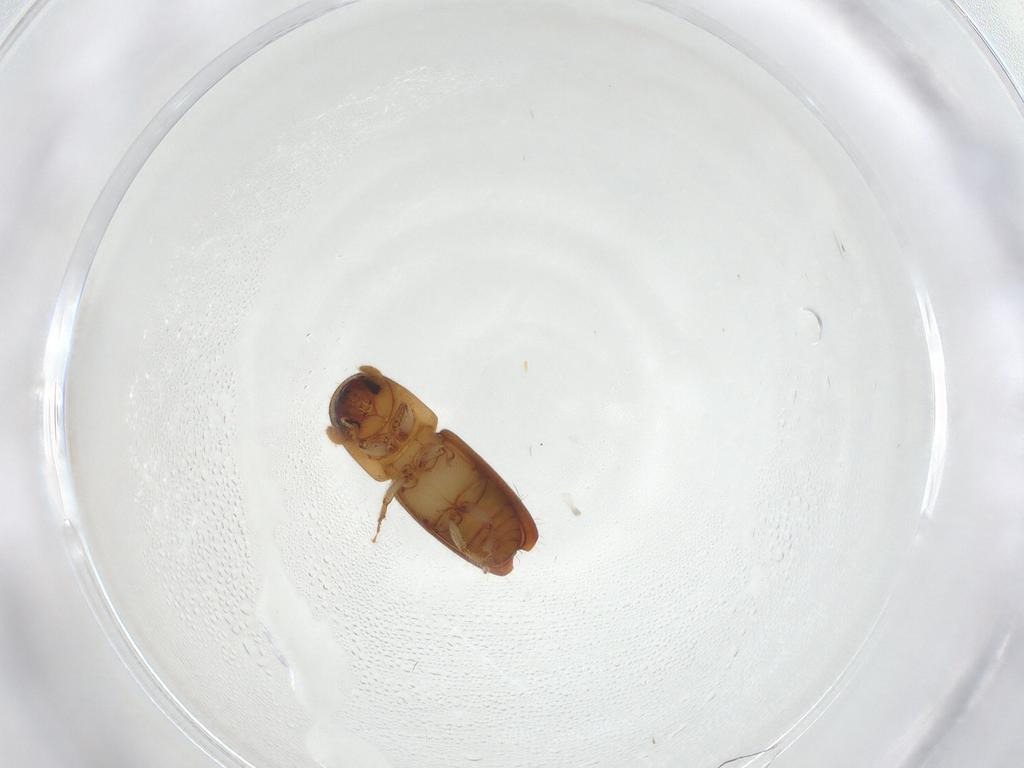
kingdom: Animalia
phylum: Arthropoda
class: Insecta
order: Coleoptera
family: Curculionidae
